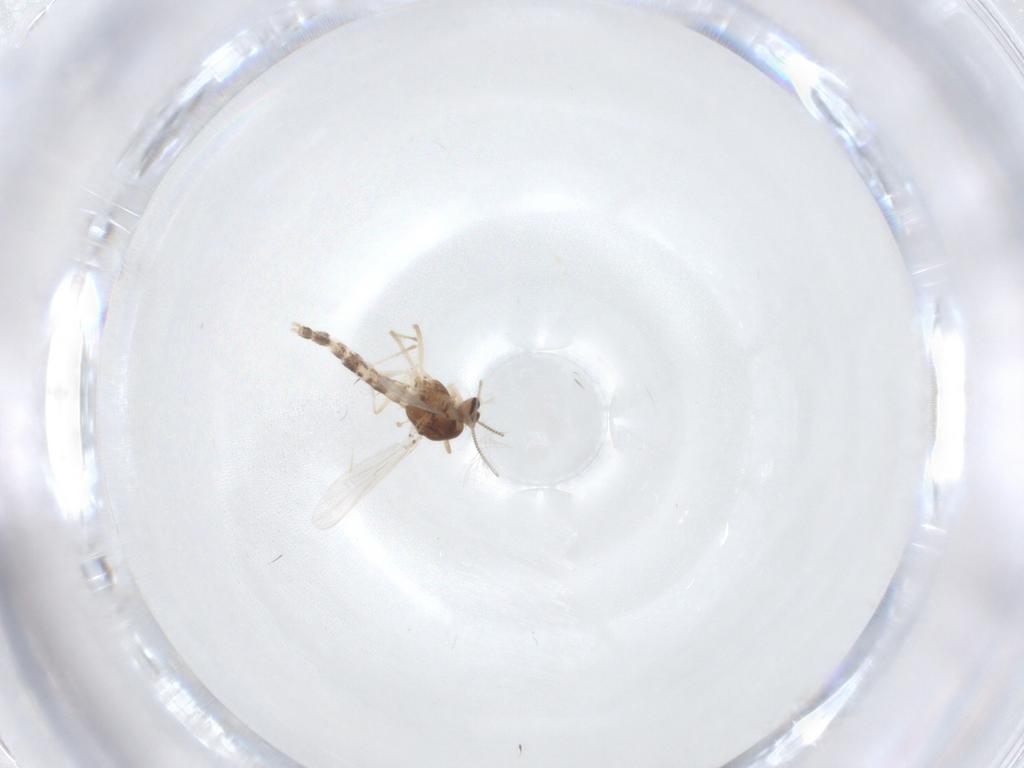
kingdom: Animalia
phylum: Arthropoda
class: Insecta
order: Diptera
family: Chironomidae
